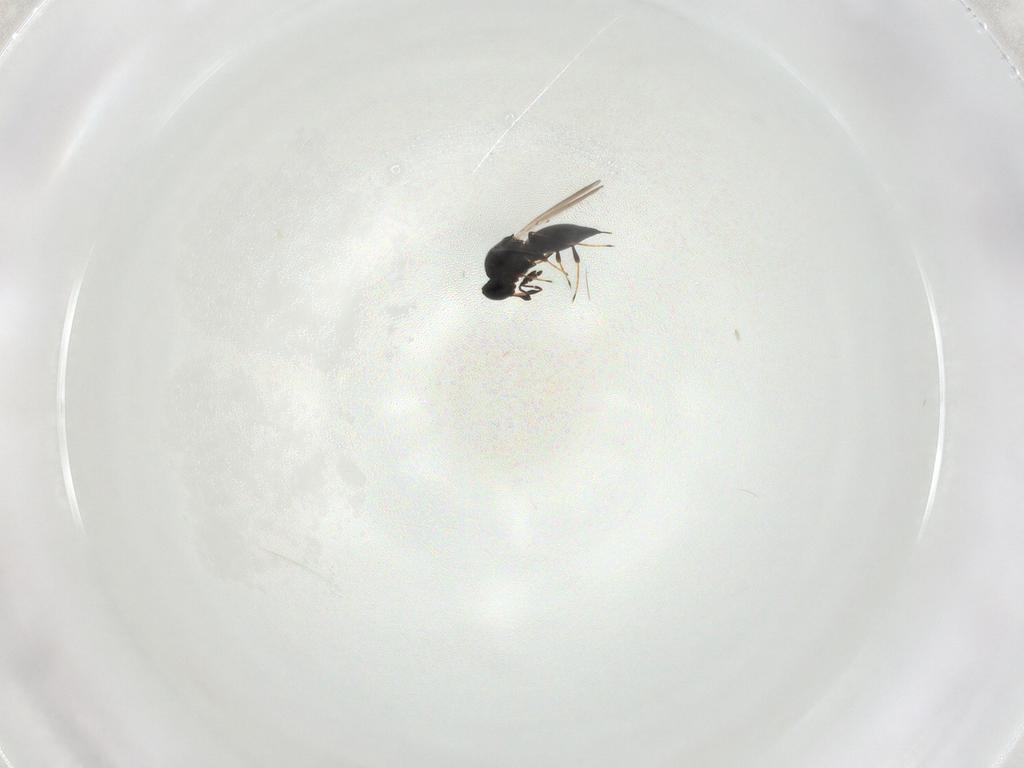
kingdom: Animalia
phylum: Arthropoda
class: Insecta
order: Hymenoptera
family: Platygastridae
